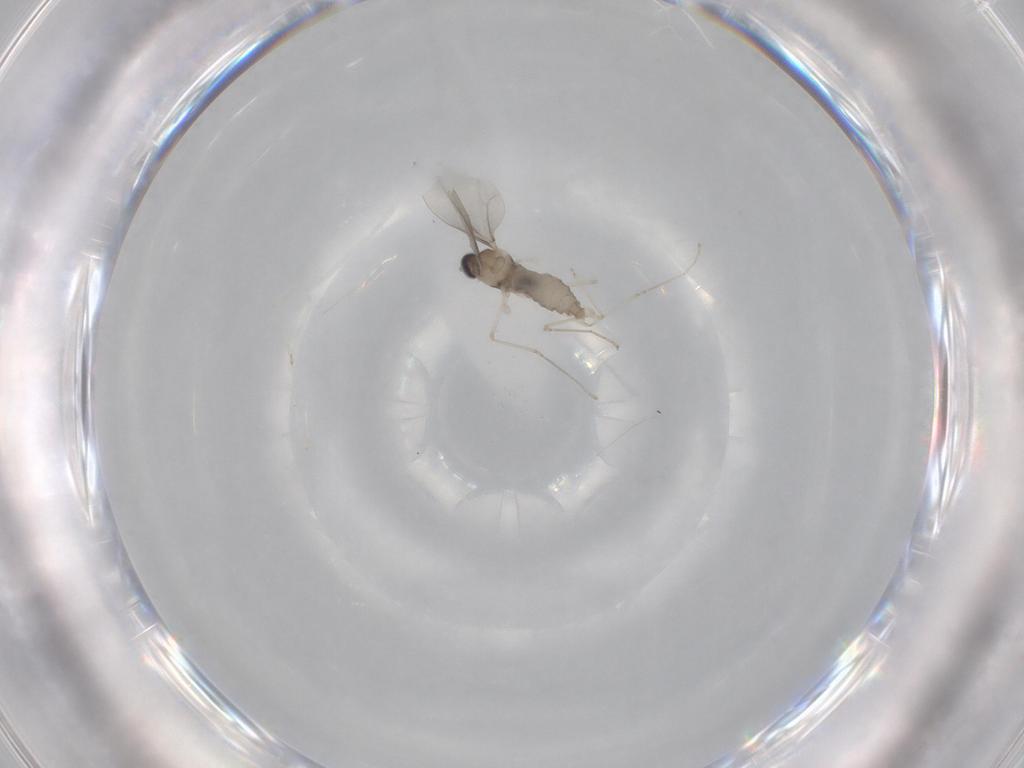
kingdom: Animalia
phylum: Arthropoda
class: Insecta
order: Diptera
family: Cecidomyiidae
